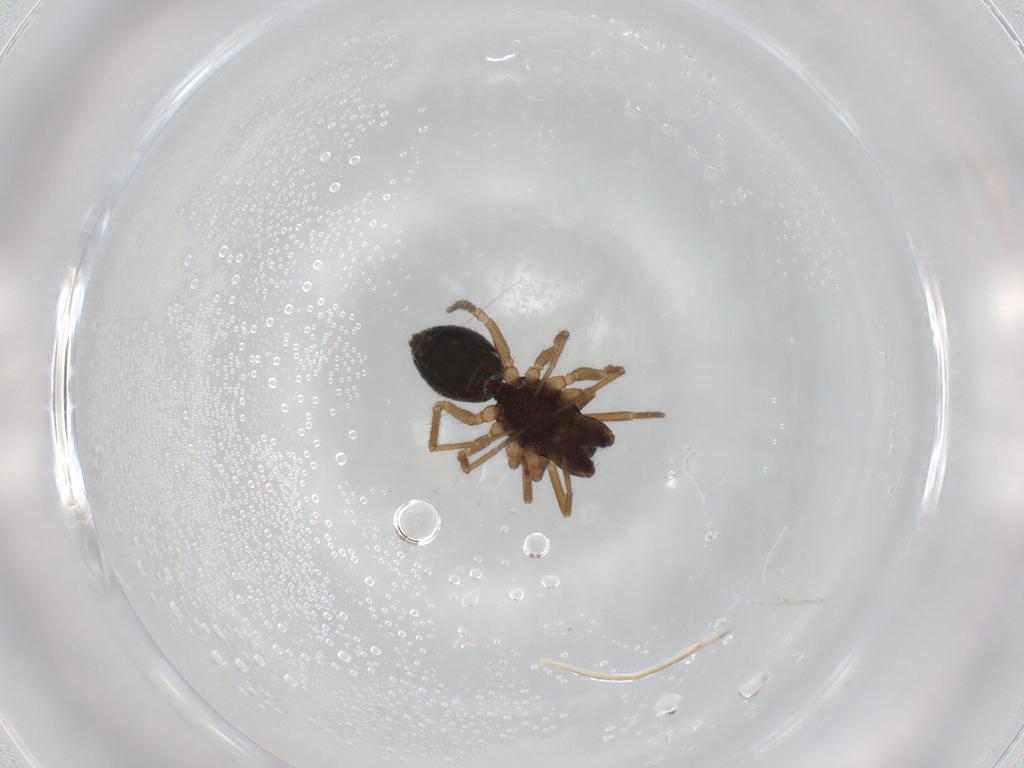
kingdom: Animalia
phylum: Arthropoda
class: Arachnida
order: Araneae
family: Linyphiidae
